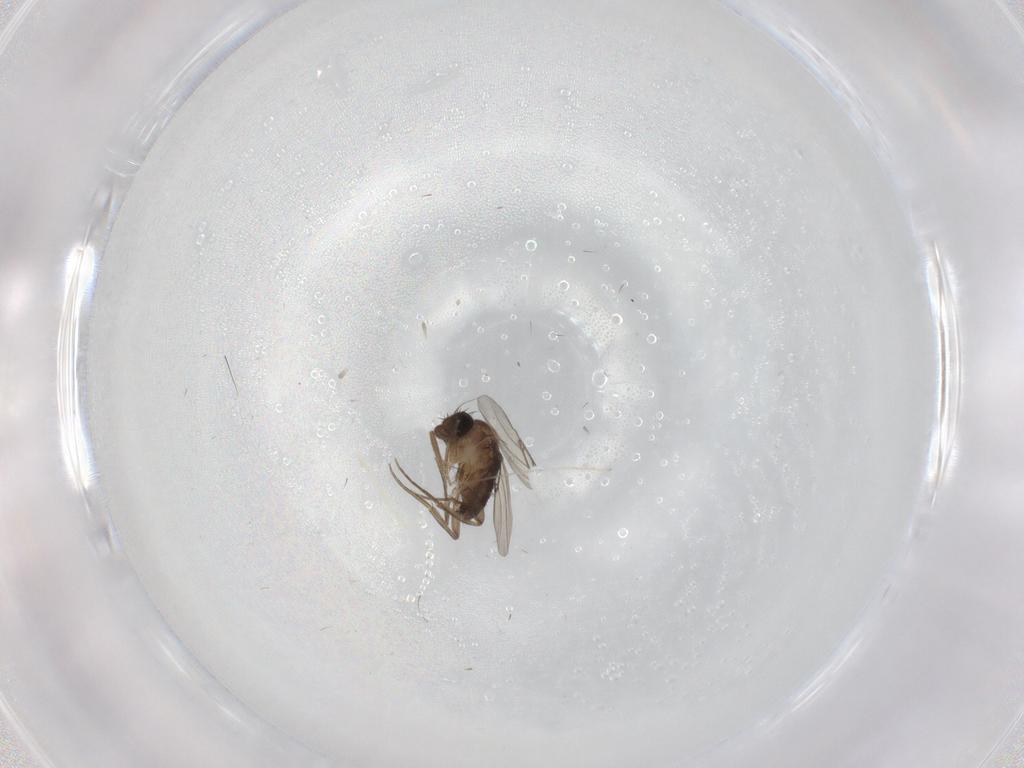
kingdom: Animalia
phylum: Arthropoda
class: Insecta
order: Diptera
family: Phoridae
